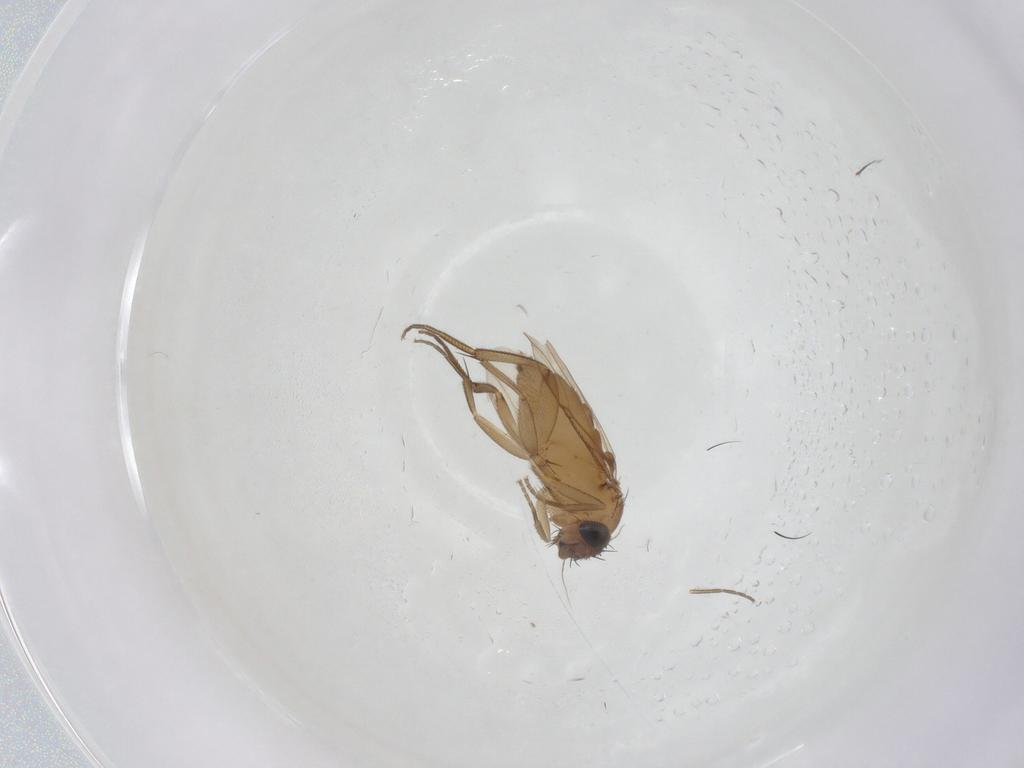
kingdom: Animalia
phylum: Arthropoda
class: Insecta
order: Diptera
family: Phoridae
